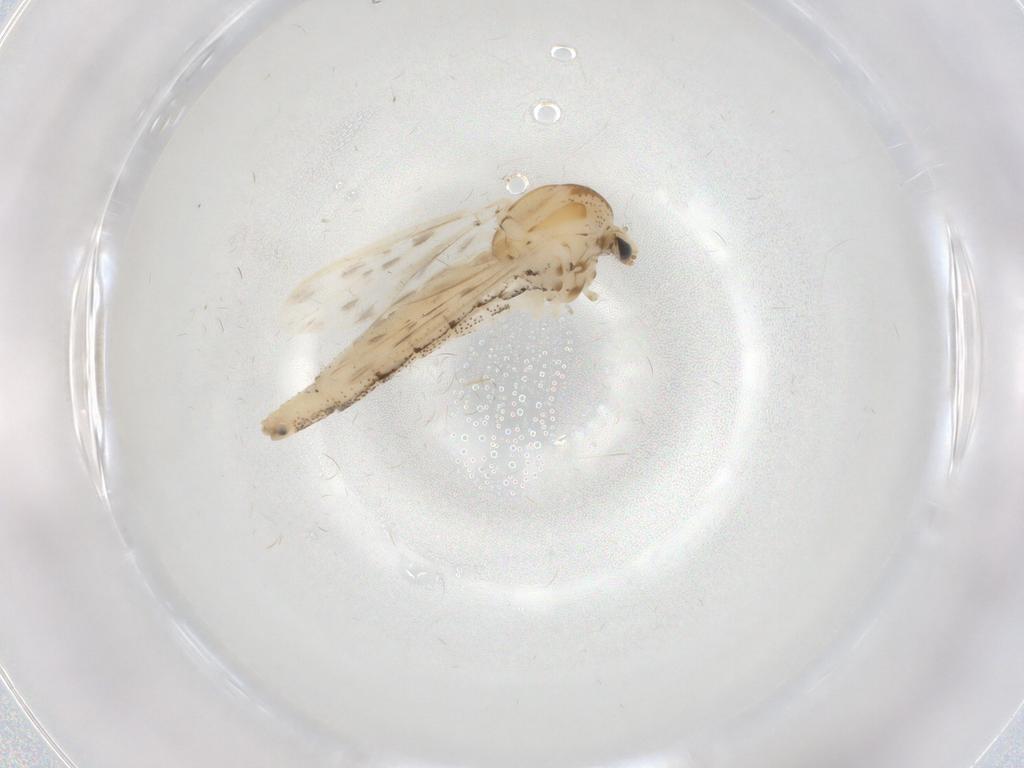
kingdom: Animalia
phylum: Arthropoda
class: Insecta
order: Diptera
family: Chaoboridae
